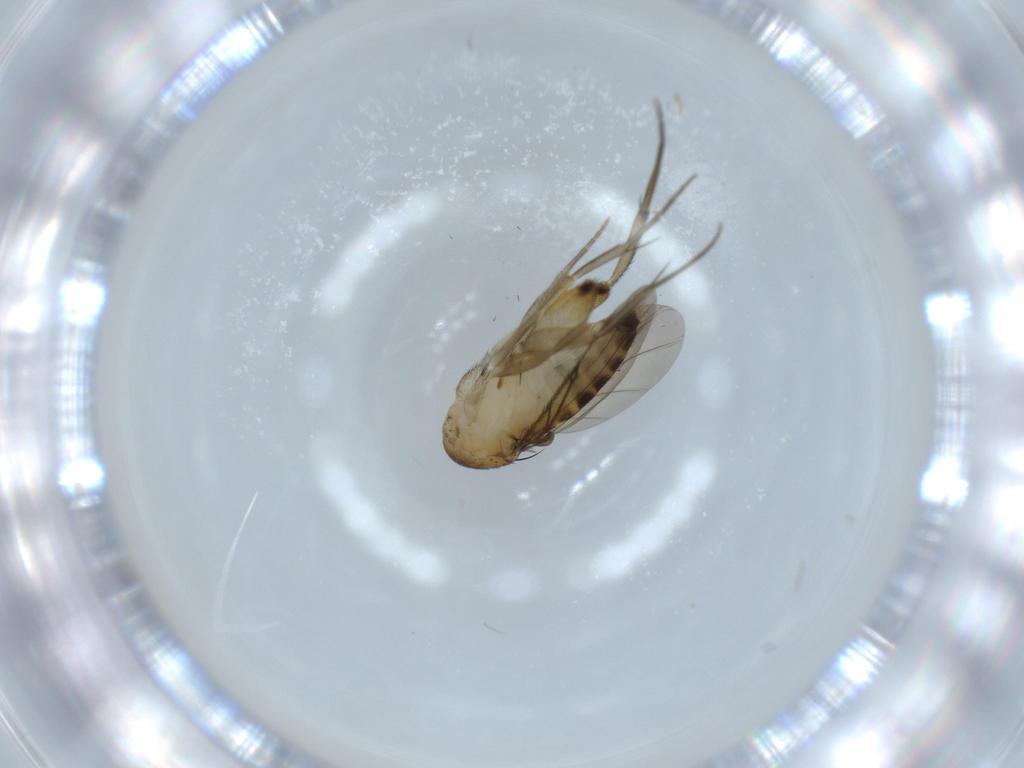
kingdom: Animalia
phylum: Arthropoda
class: Insecta
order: Diptera
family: Phoridae
